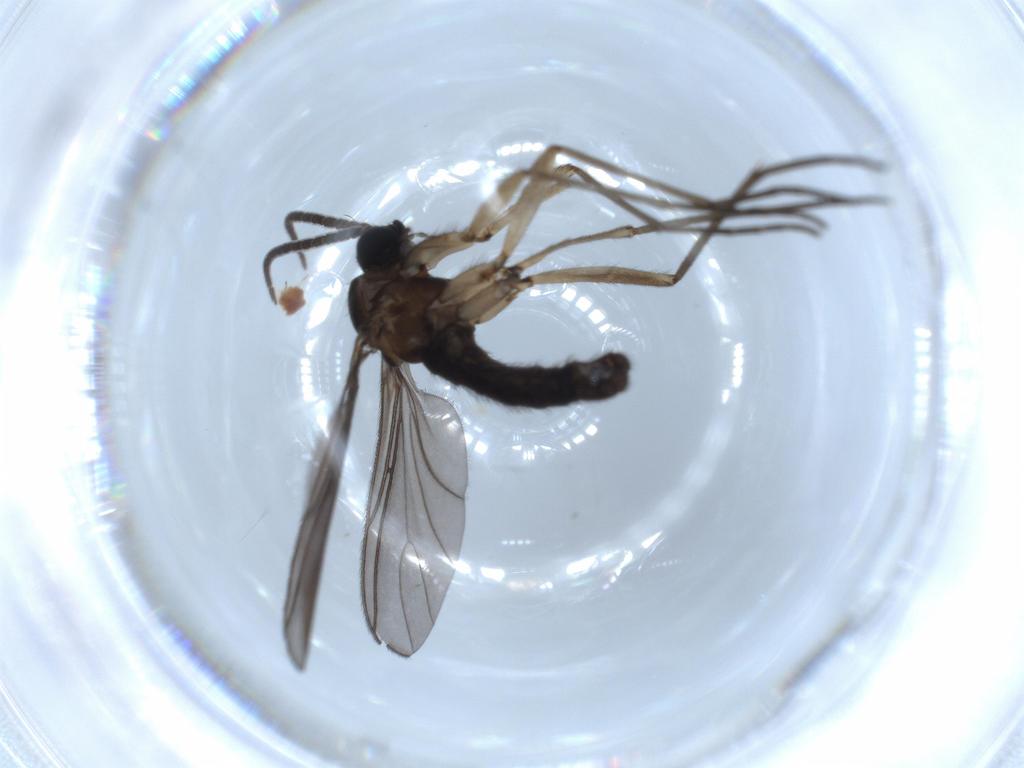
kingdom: Animalia
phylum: Arthropoda
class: Insecta
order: Diptera
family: Sciaridae
